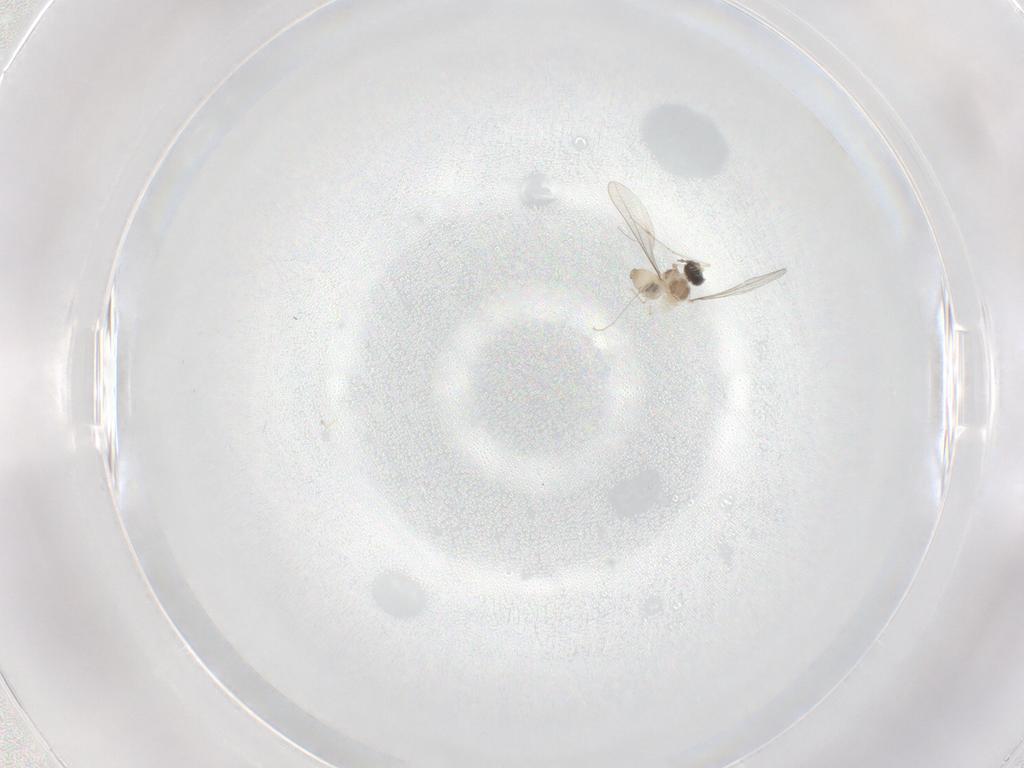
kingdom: Animalia
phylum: Arthropoda
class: Insecta
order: Diptera
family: Cecidomyiidae
